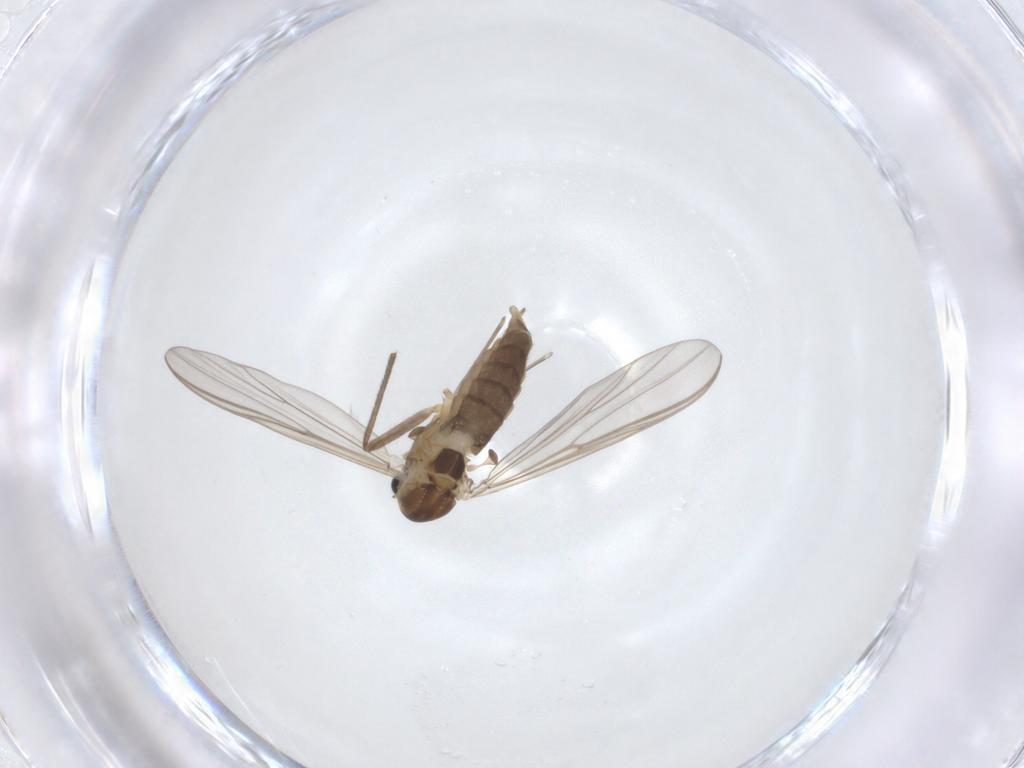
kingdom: Animalia
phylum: Arthropoda
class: Insecta
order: Diptera
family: Chironomidae
